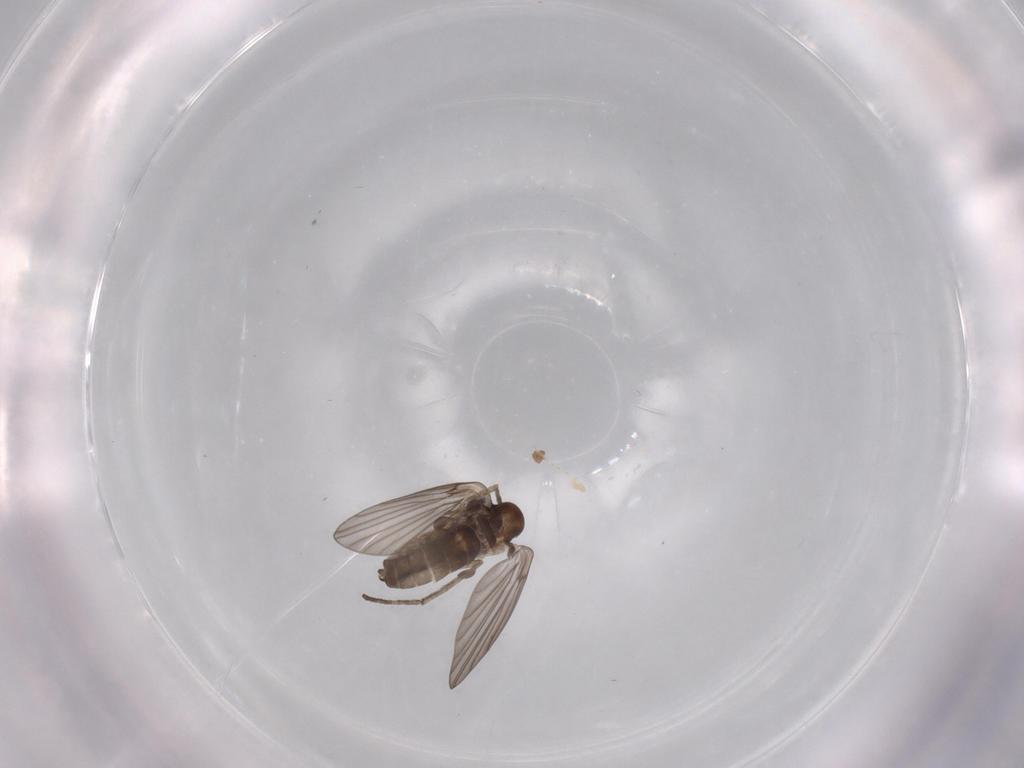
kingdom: Animalia
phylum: Arthropoda
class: Insecta
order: Diptera
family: Psychodidae
